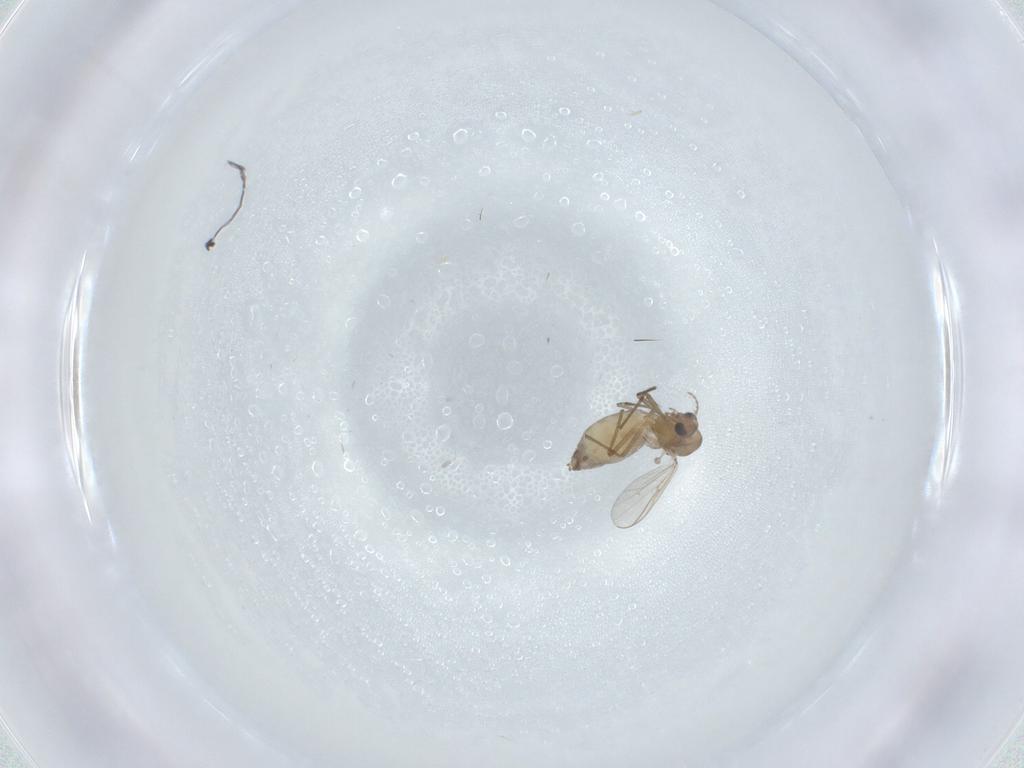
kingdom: Animalia
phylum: Arthropoda
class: Insecta
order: Diptera
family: Chironomidae
